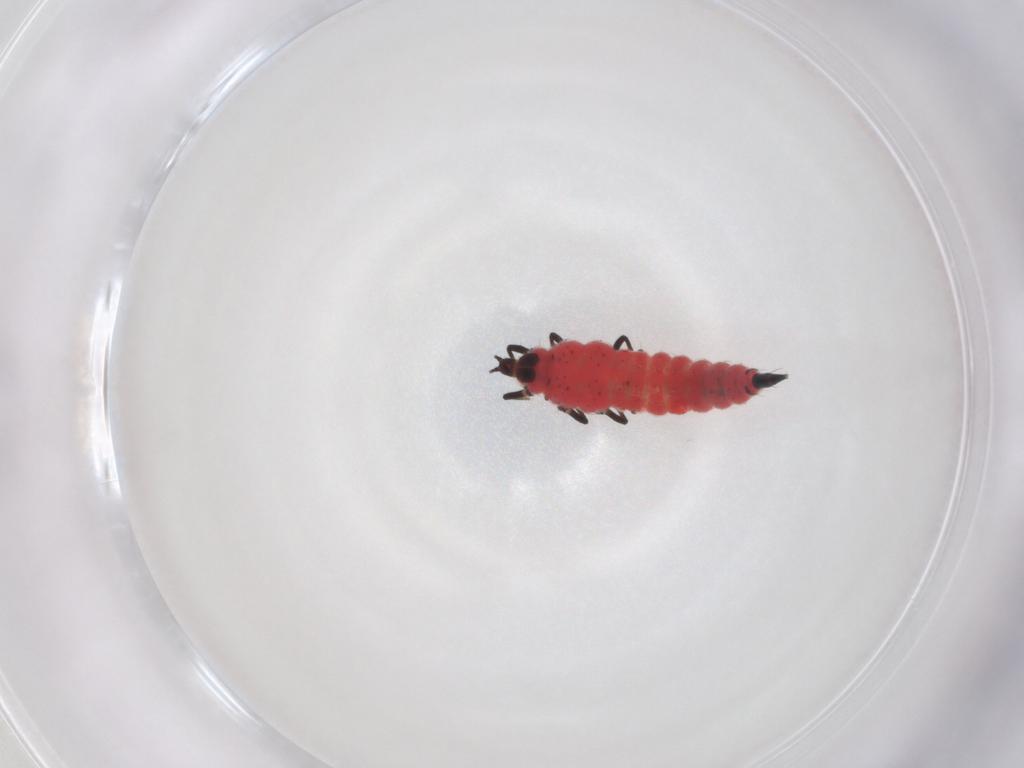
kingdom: Animalia
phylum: Arthropoda
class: Insecta
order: Thysanoptera
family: Phlaeothripidae
